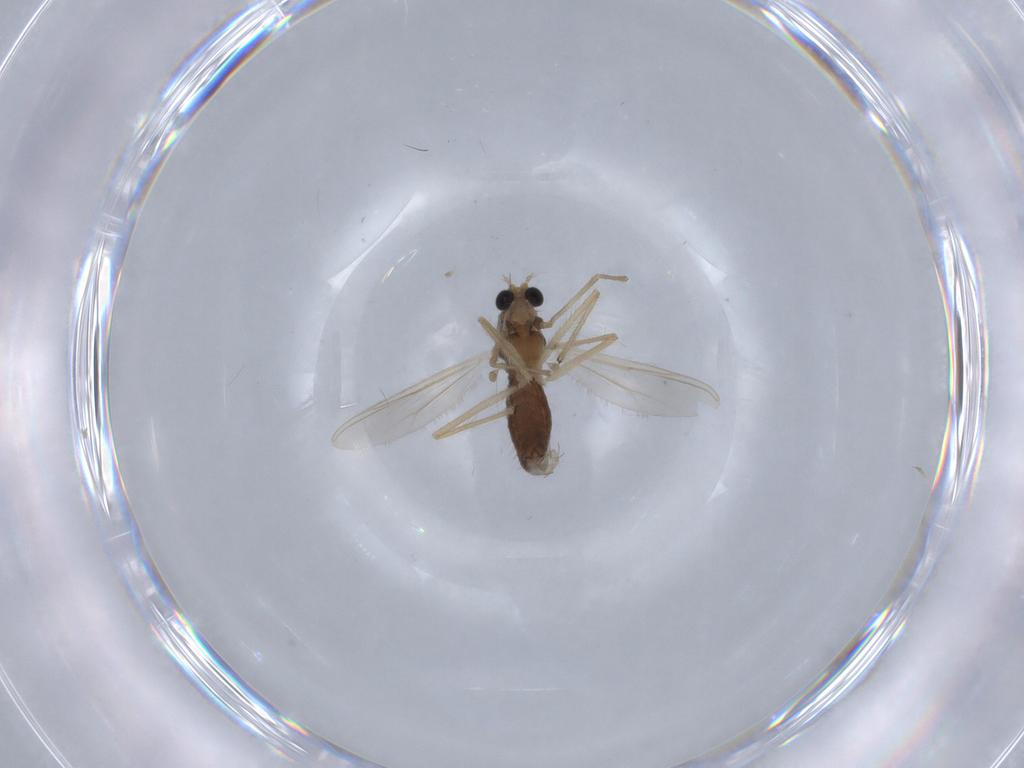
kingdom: Animalia
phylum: Arthropoda
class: Insecta
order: Diptera
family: Chironomidae
